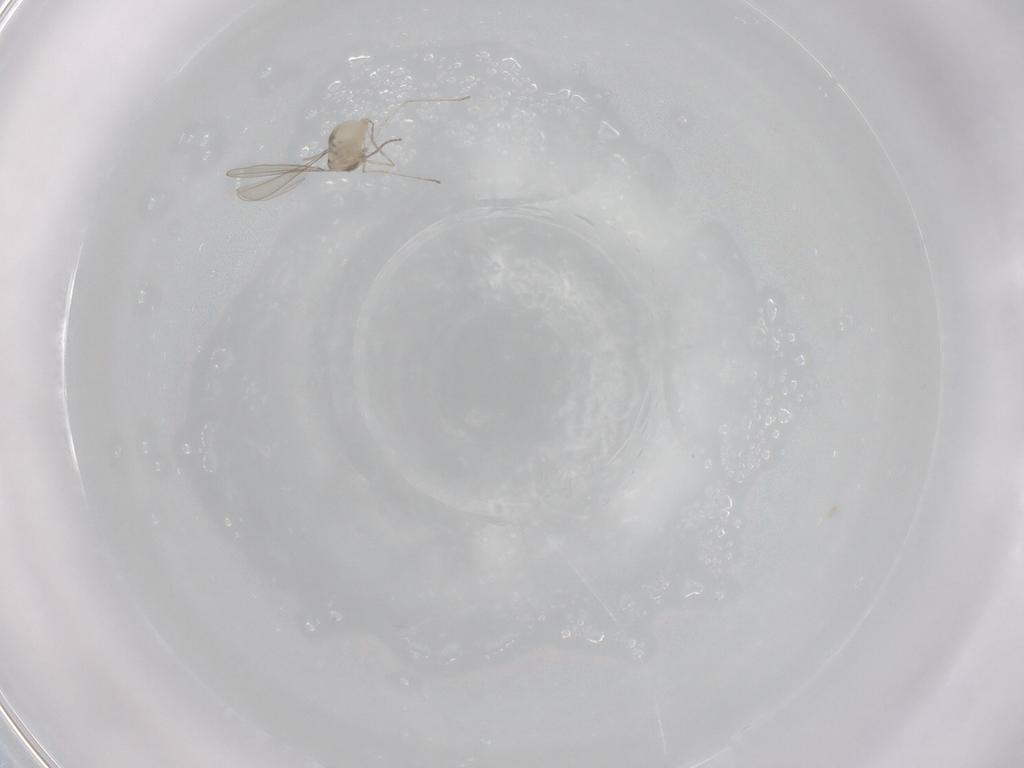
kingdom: Animalia
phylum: Arthropoda
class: Insecta
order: Diptera
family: Cecidomyiidae
